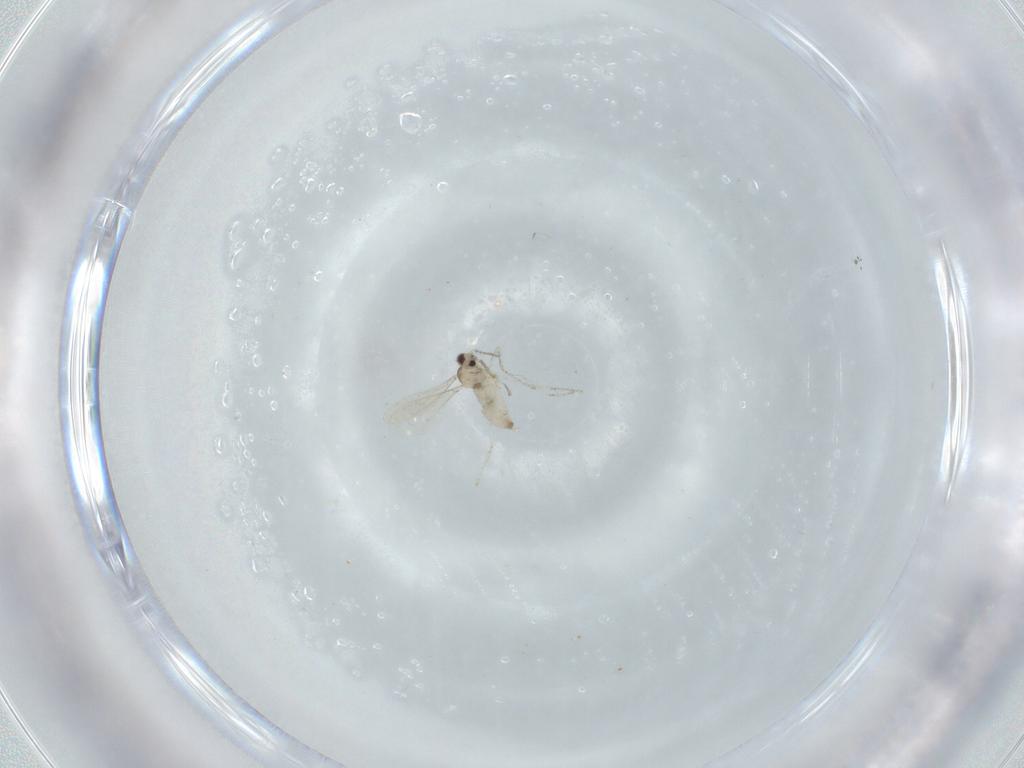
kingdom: Animalia
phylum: Arthropoda
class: Insecta
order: Diptera
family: Cecidomyiidae
